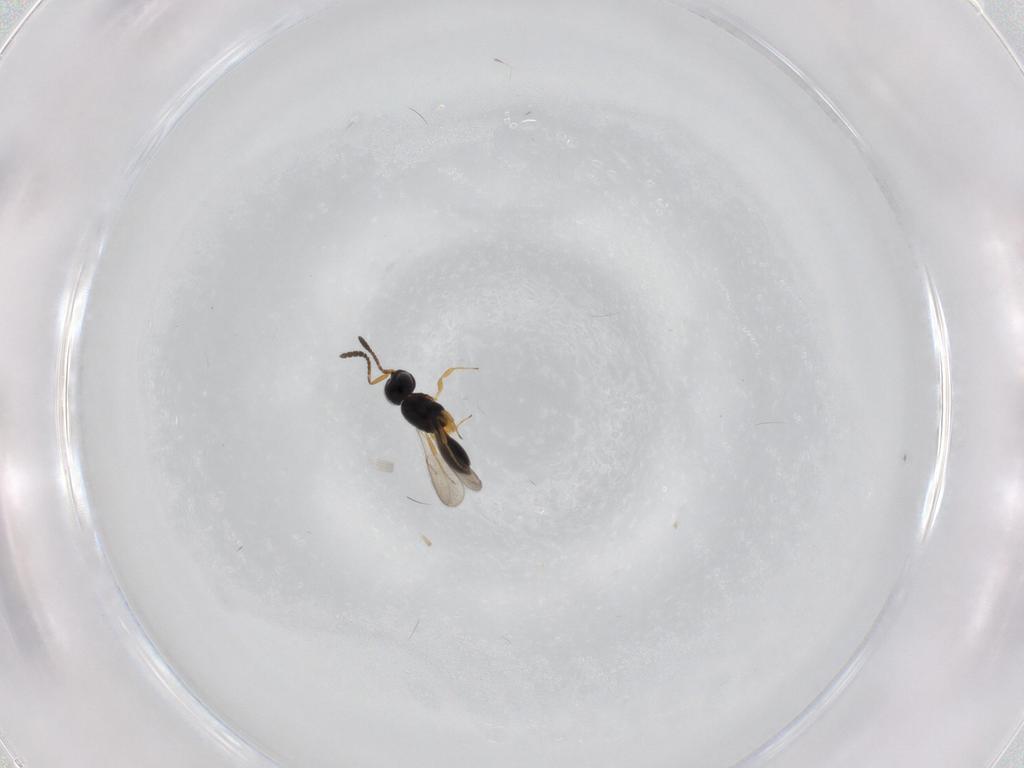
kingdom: Animalia
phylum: Arthropoda
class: Insecta
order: Hymenoptera
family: Scelionidae
